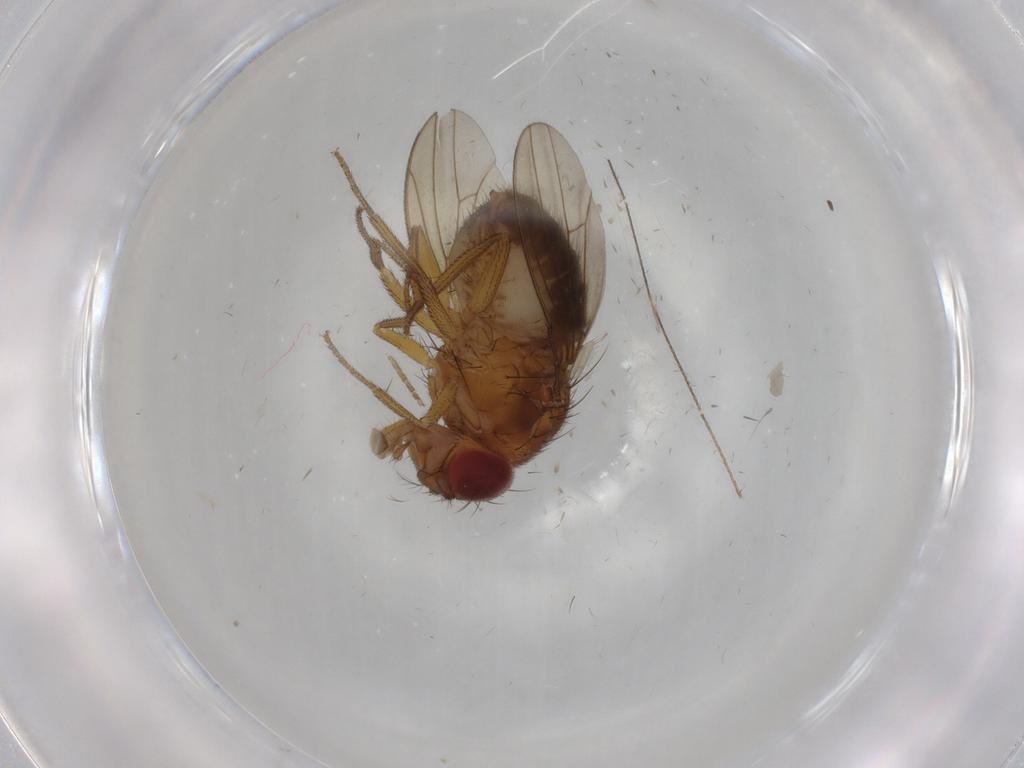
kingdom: Animalia
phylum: Arthropoda
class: Insecta
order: Diptera
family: Drosophilidae
